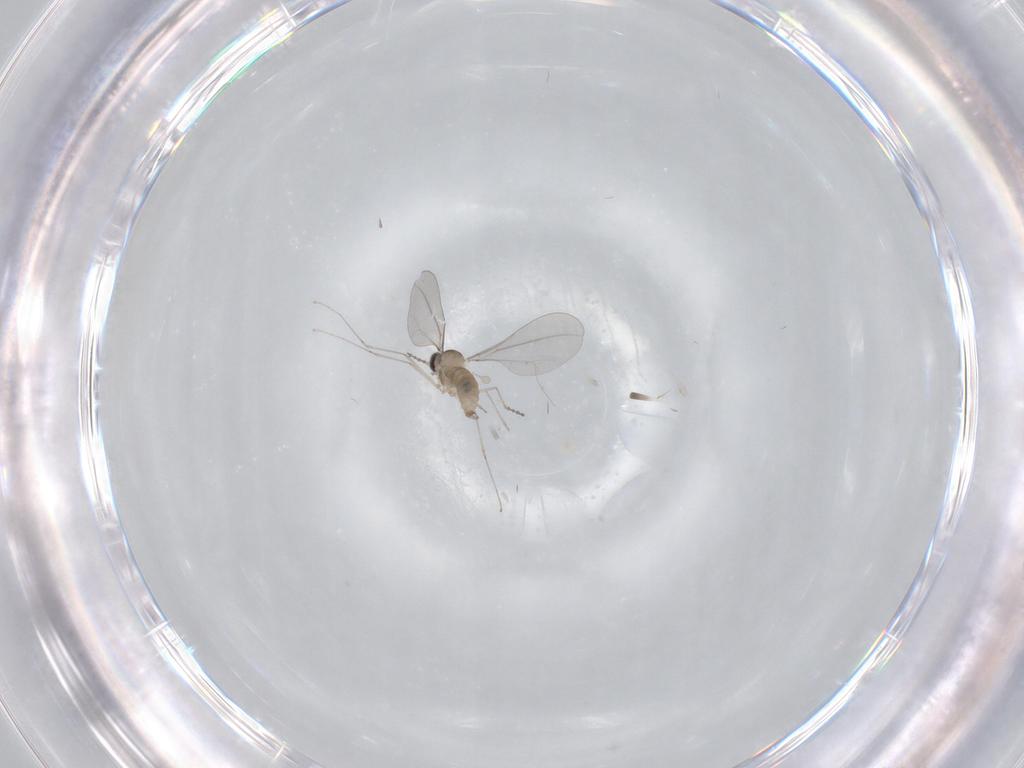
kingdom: Animalia
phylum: Arthropoda
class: Insecta
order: Diptera
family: Cecidomyiidae
